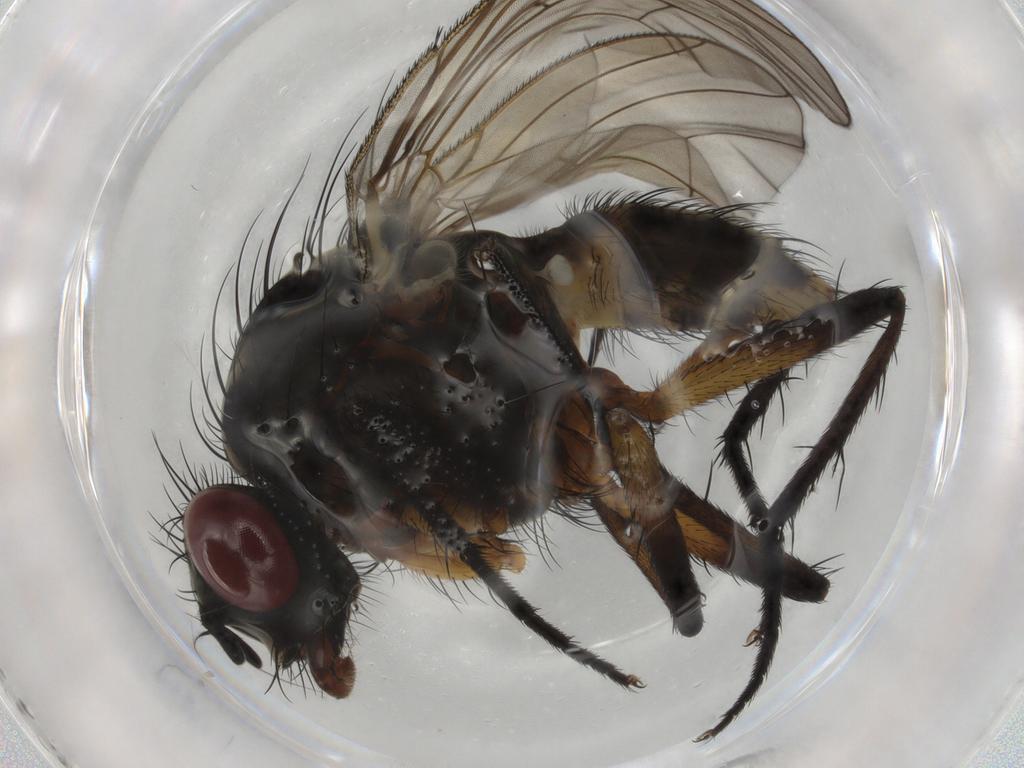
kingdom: Animalia
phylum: Arthropoda
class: Insecta
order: Diptera
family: Anthomyiidae
